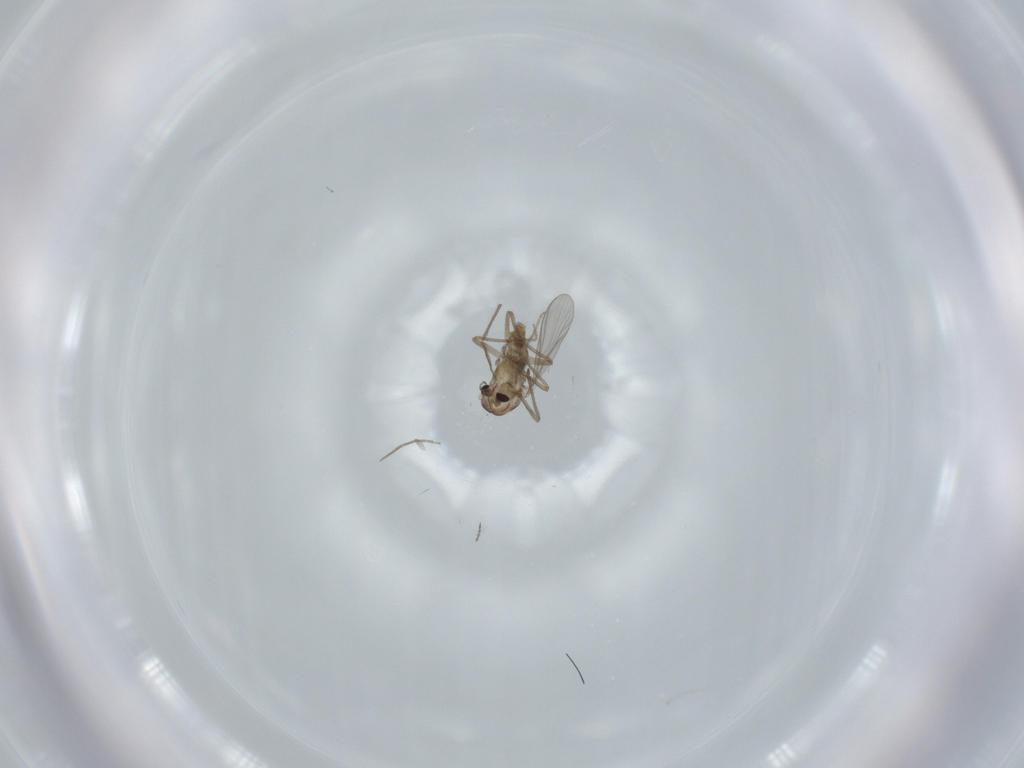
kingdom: Animalia
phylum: Arthropoda
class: Insecta
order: Diptera
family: Chironomidae
